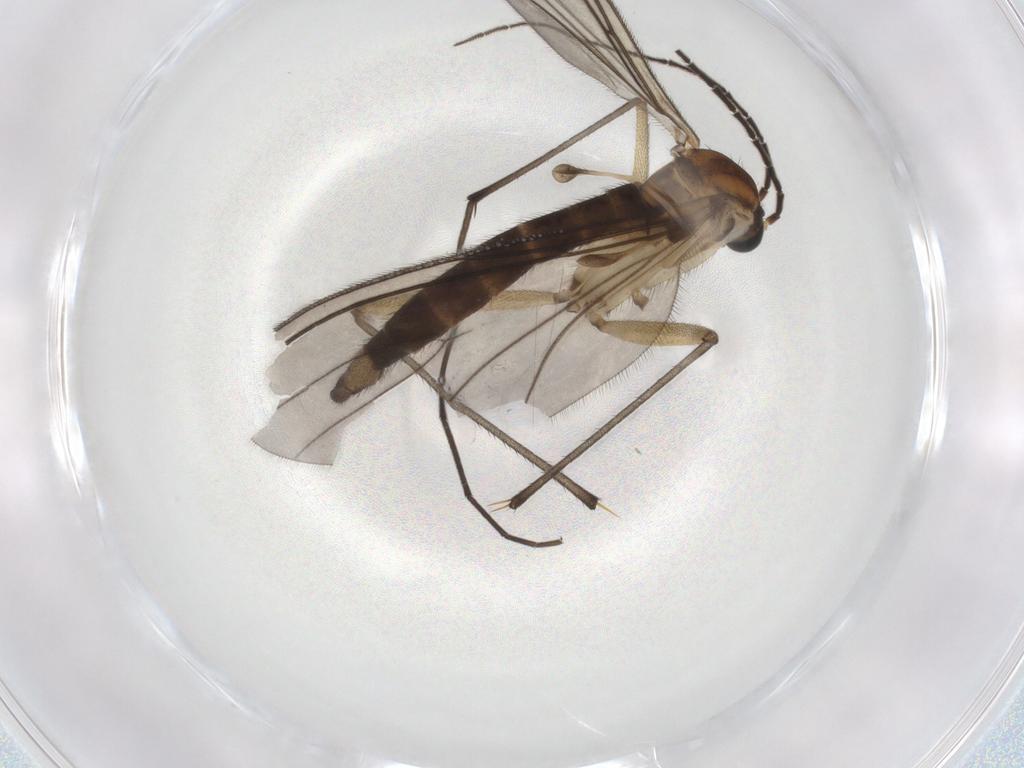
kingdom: Animalia
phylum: Arthropoda
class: Insecta
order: Diptera
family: Sciaridae
